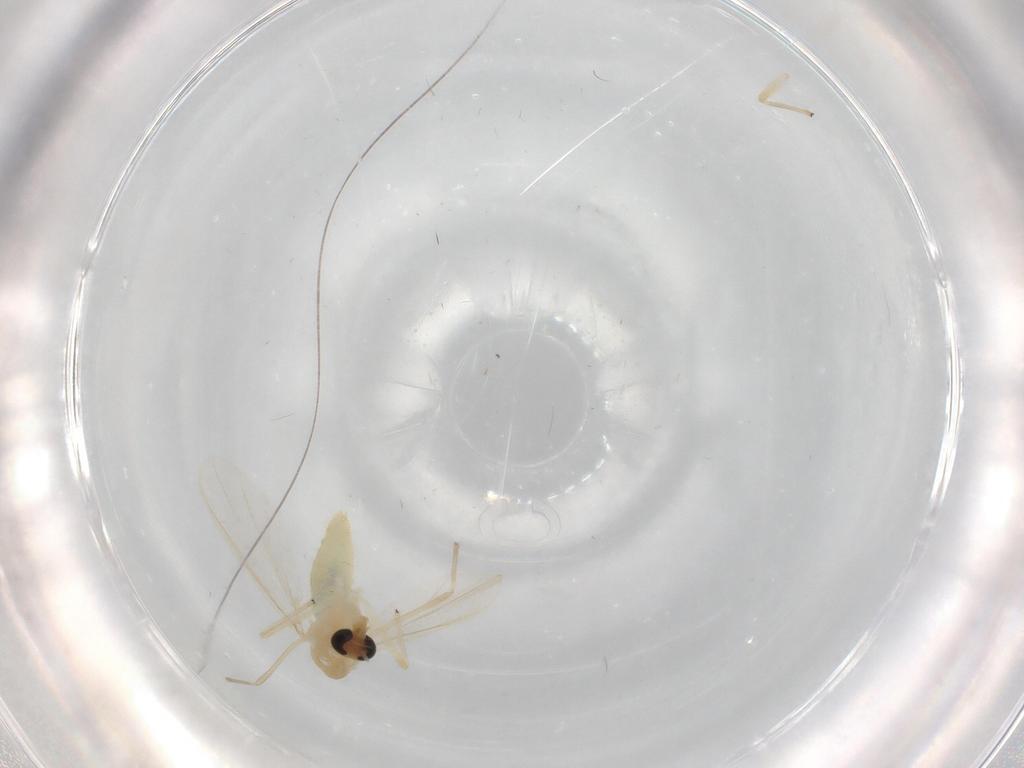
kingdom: Animalia
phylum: Arthropoda
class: Insecta
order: Diptera
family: Chironomidae
